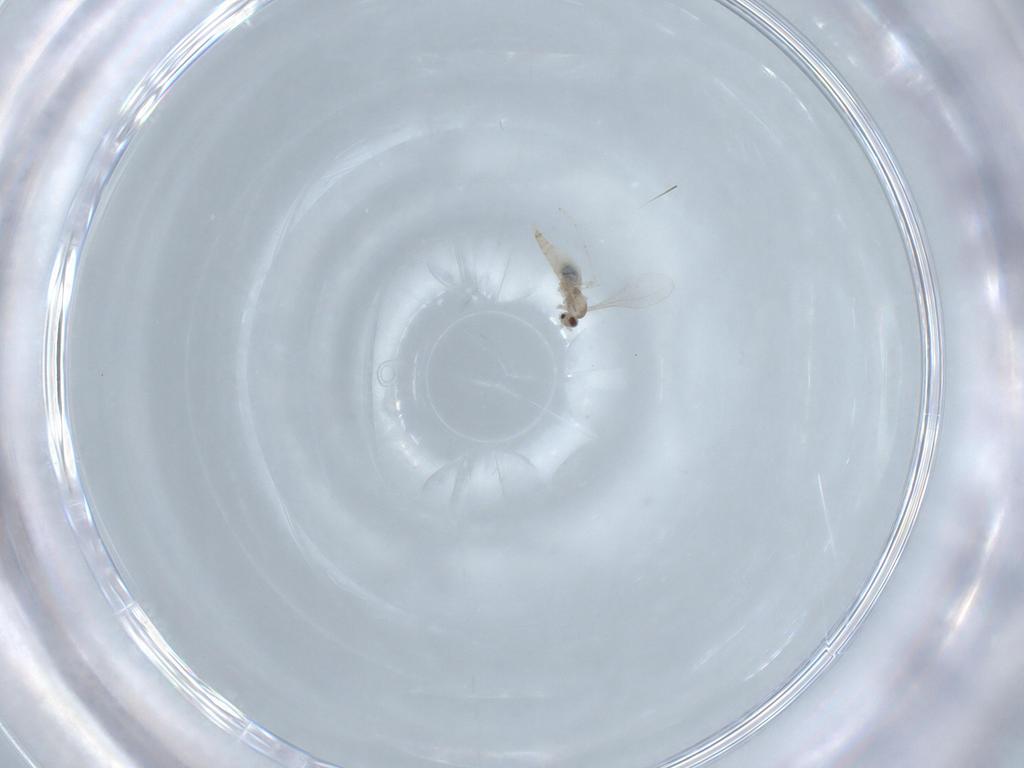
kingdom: Animalia
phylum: Arthropoda
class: Insecta
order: Diptera
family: Cecidomyiidae
